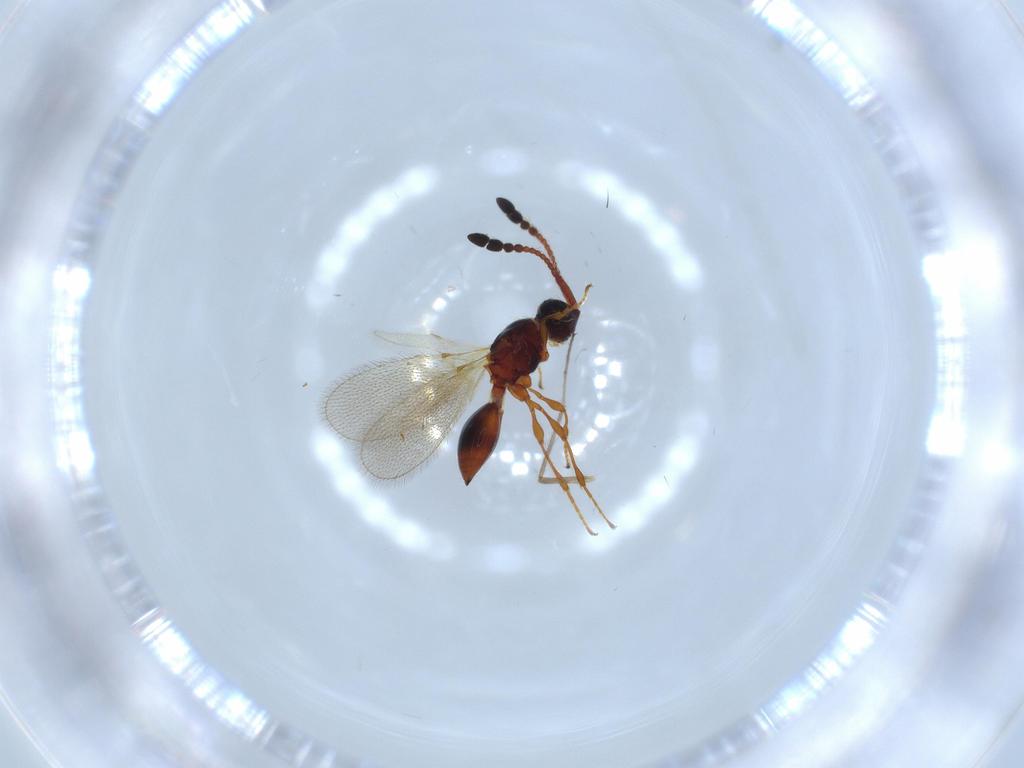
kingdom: Animalia
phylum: Arthropoda
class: Insecta
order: Hymenoptera
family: Diapriidae
